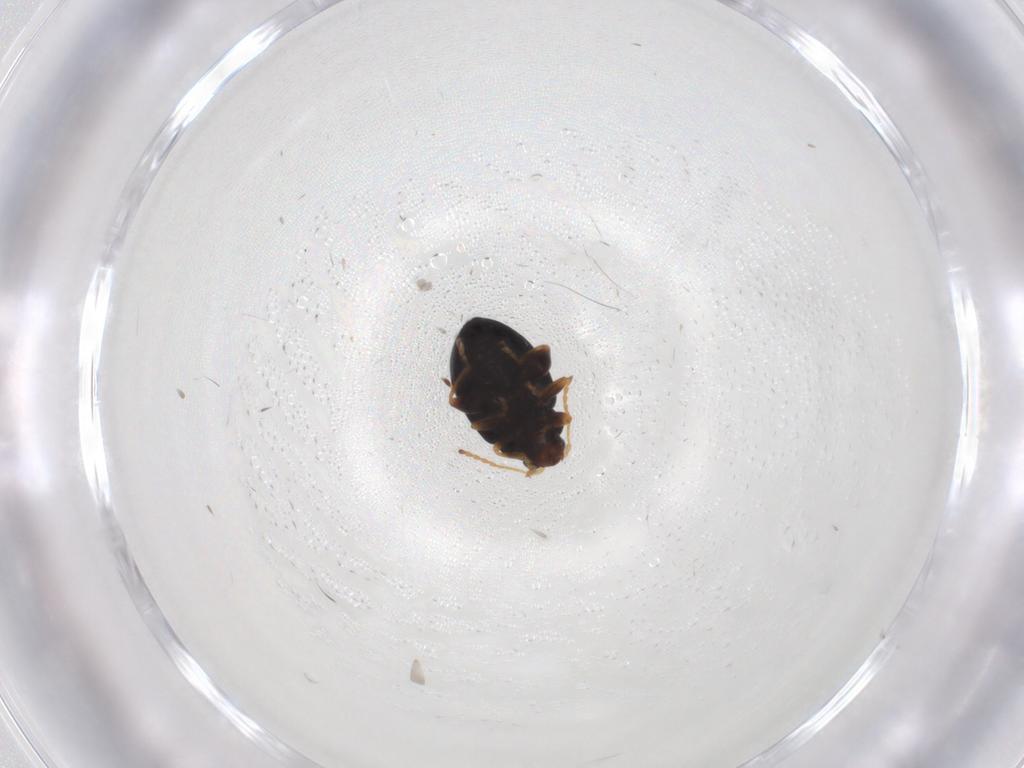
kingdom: Animalia
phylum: Arthropoda
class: Insecta
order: Coleoptera
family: Chrysomelidae
